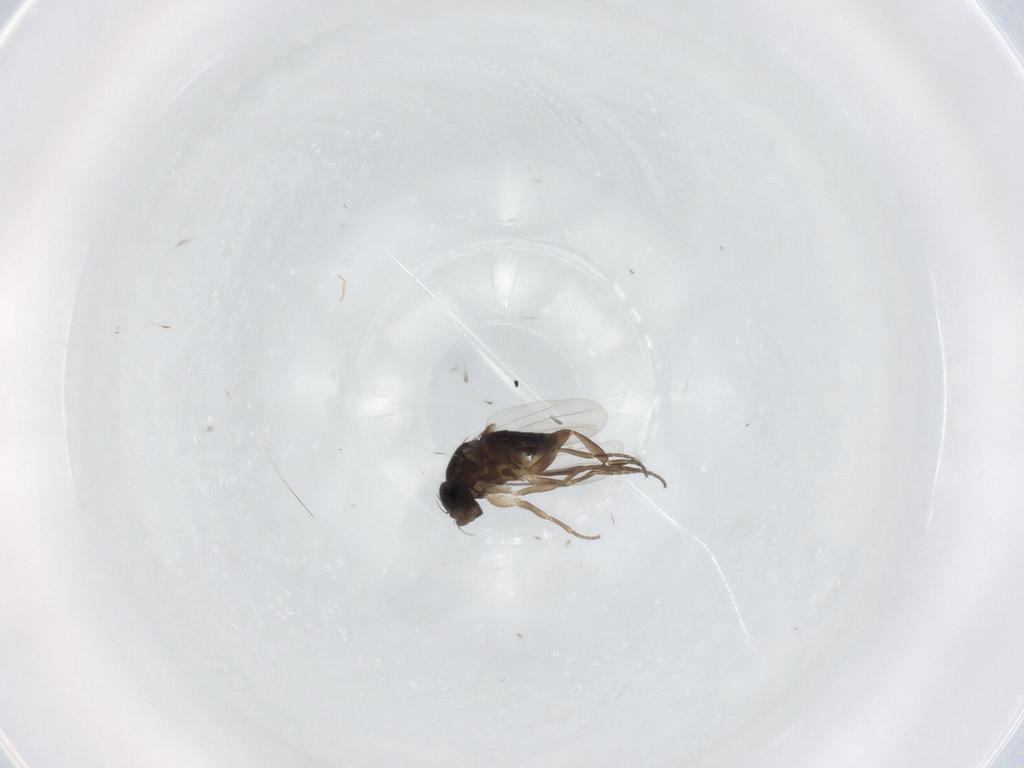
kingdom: Animalia
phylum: Arthropoda
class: Insecta
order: Diptera
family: Phoridae
